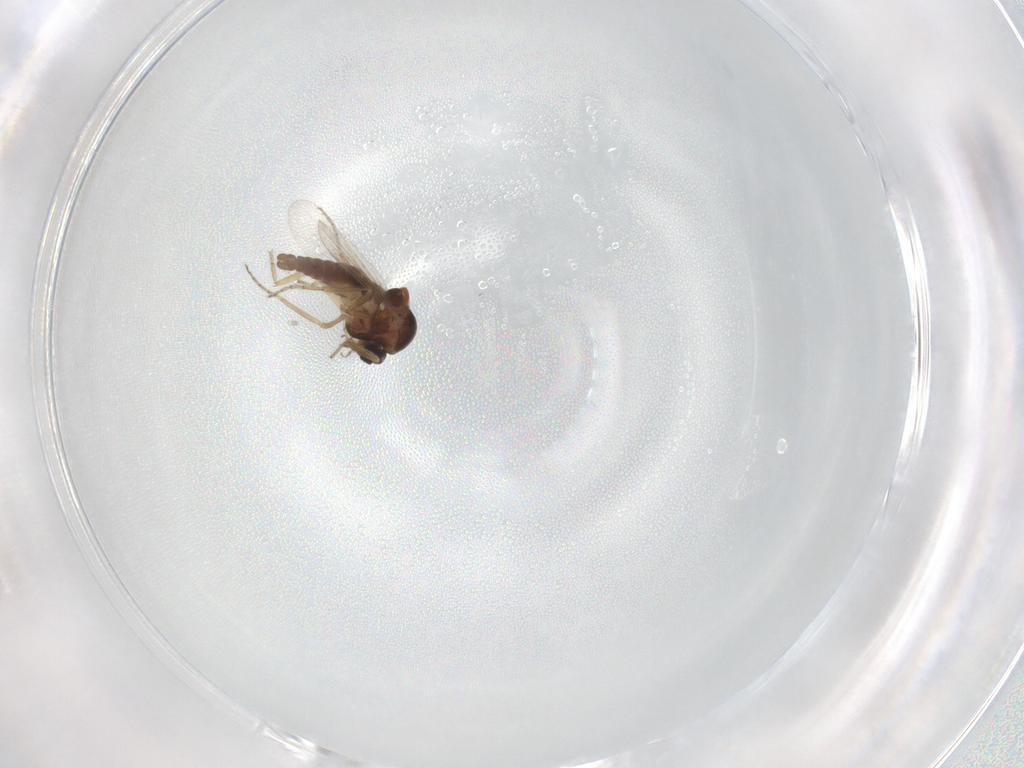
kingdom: Animalia
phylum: Arthropoda
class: Insecta
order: Diptera
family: Ceratopogonidae
